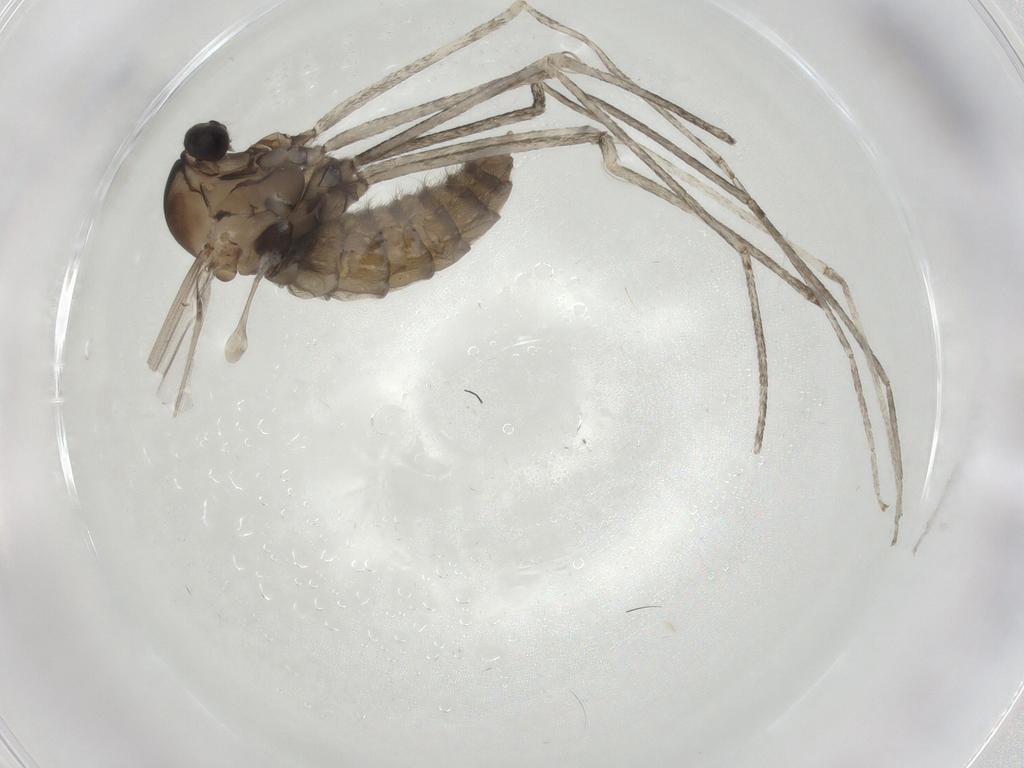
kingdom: Animalia
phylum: Arthropoda
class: Insecta
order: Diptera
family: Cecidomyiidae
